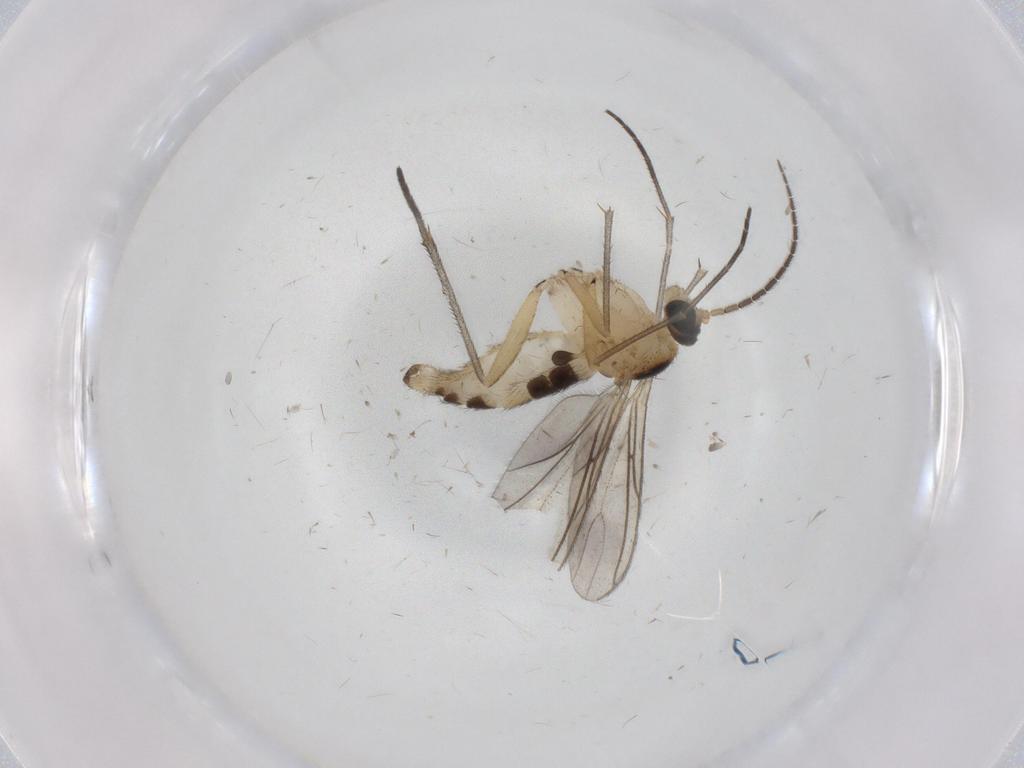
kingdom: Animalia
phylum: Arthropoda
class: Insecta
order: Diptera
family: Sciaridae
